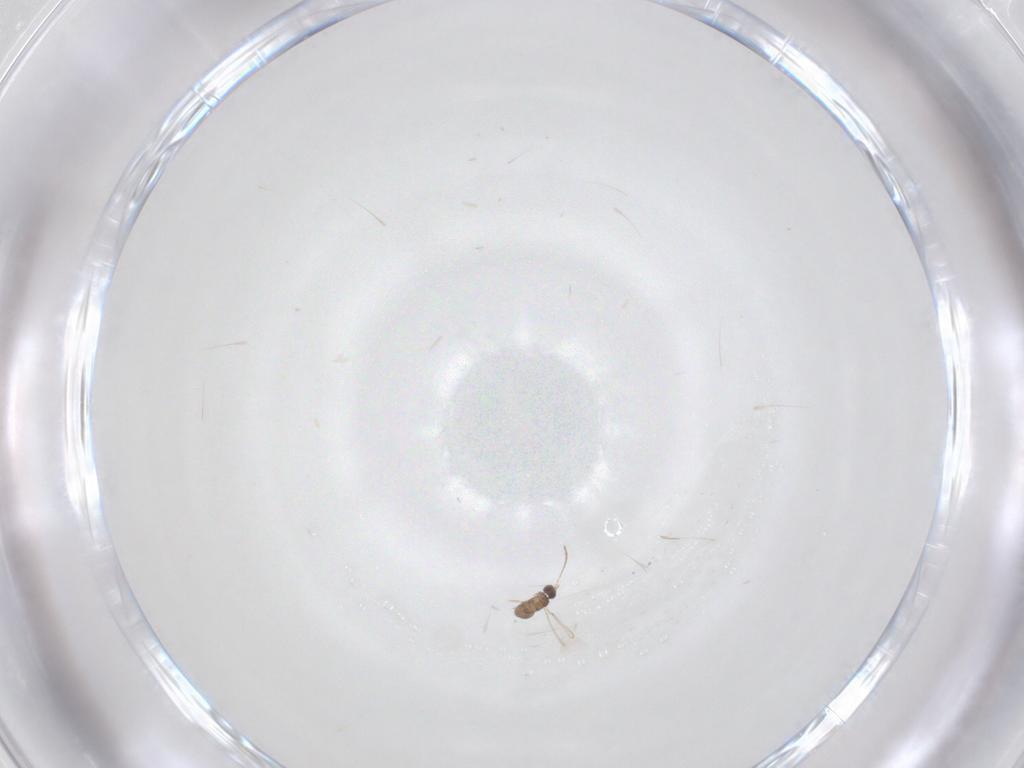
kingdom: Animalia
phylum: Arthropoda
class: Insecta
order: Hymenoptera
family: Mymaridae
